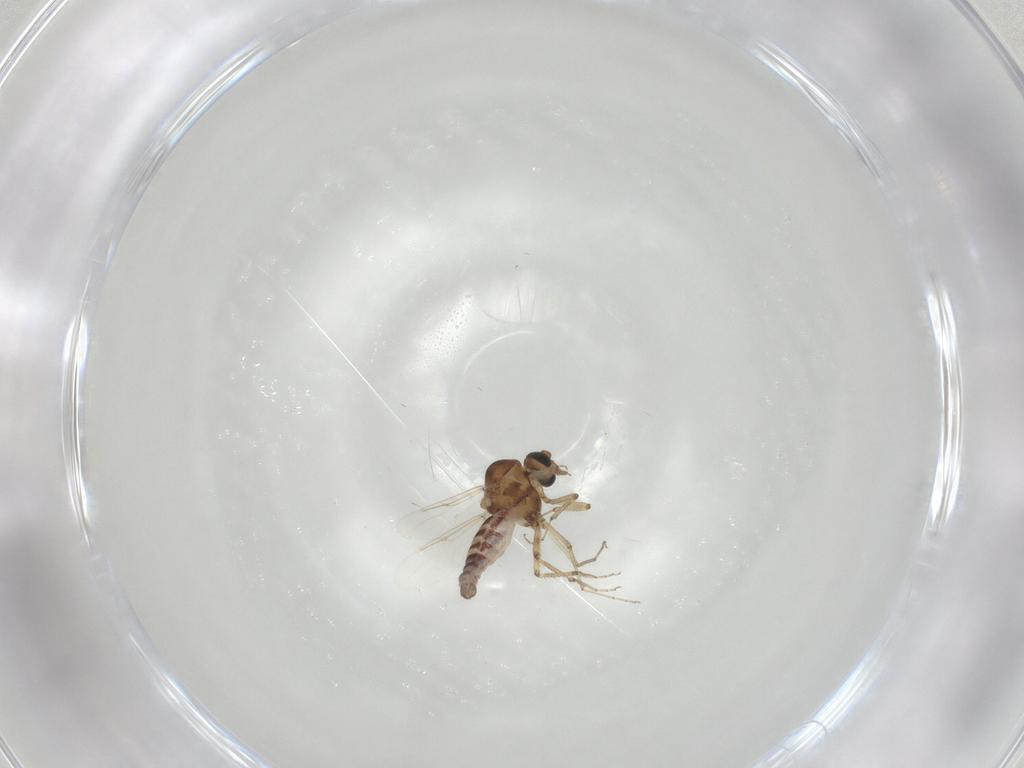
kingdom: Animalia
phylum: Arthropoda
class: Insecta
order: Diptera
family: Ceratopogonidae
